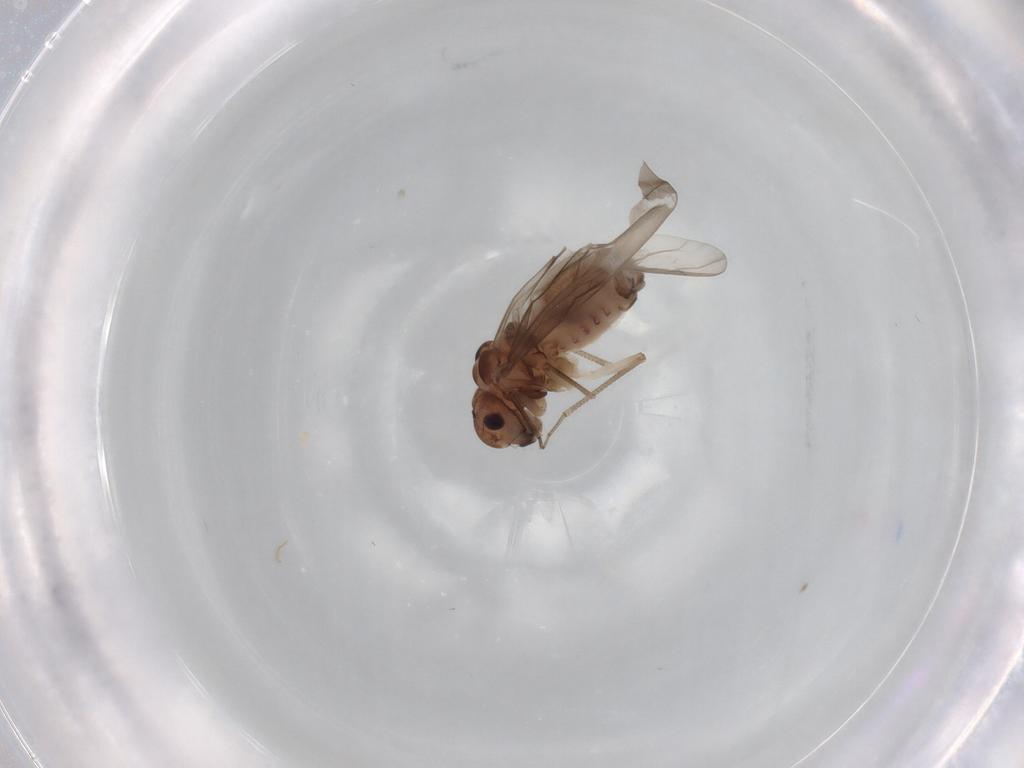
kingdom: Animalia
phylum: Arthropoda
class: Insecta
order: Psocodea
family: Peripsocidae
